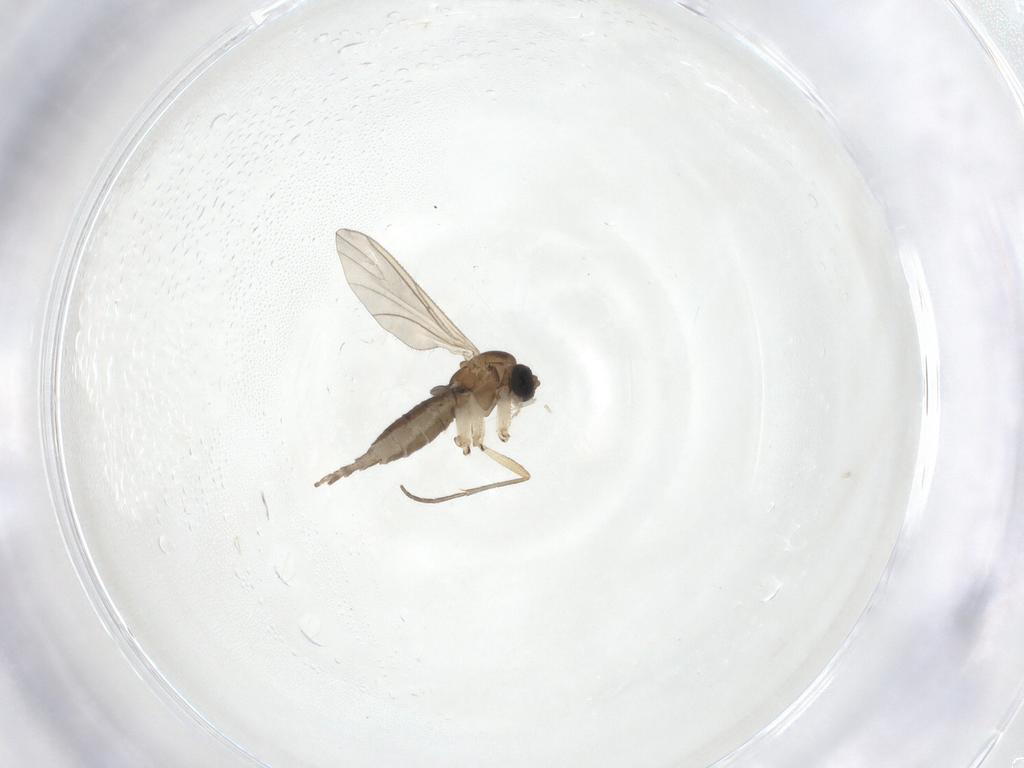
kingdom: Animalia
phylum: Arthropoda
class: Insecta
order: Diptera
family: Sciaridae
